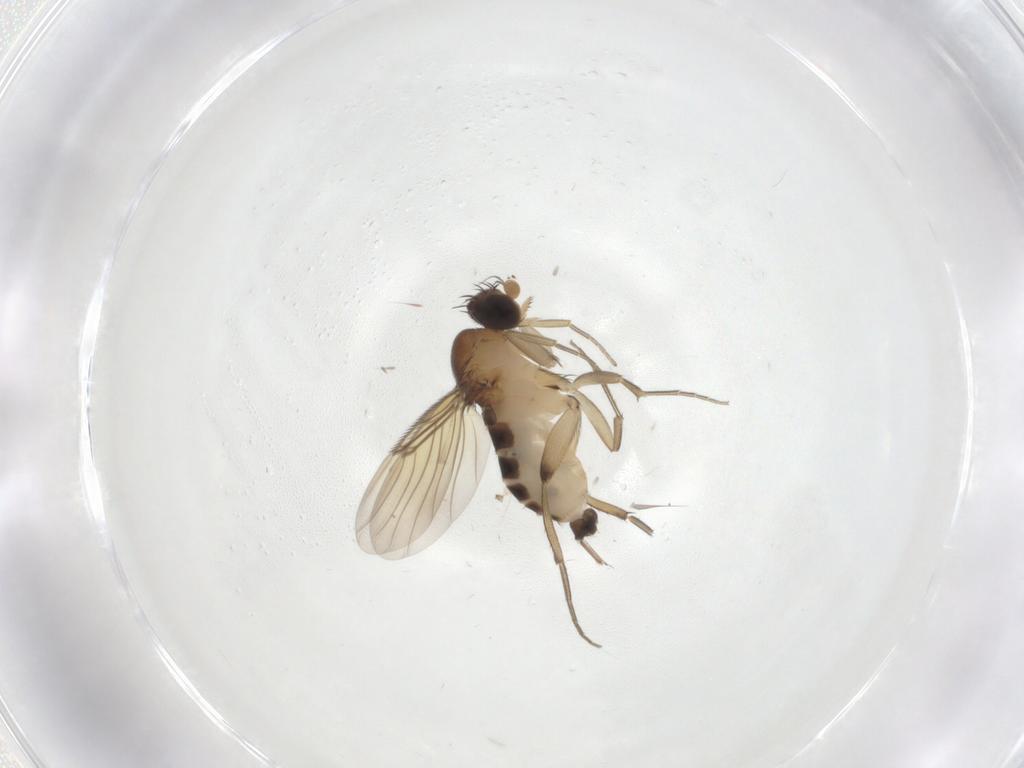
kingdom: Animalia
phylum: Arthropoda
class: Insecta
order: Diptera
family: Phoridae
